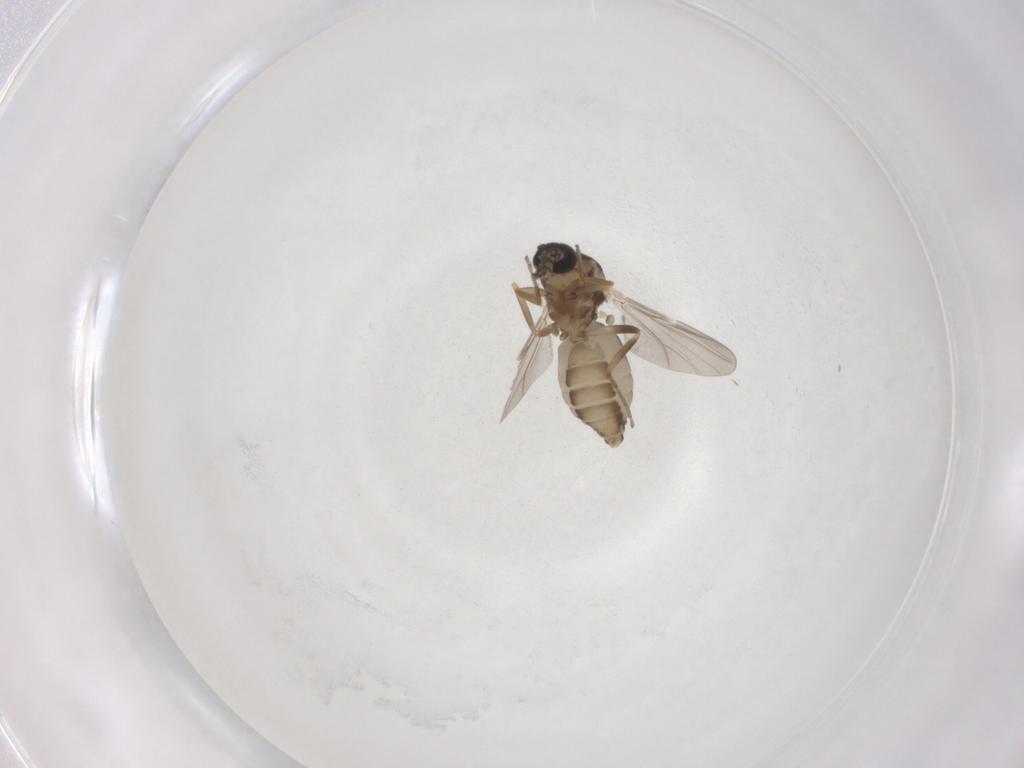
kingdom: Animalia
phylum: Arthropoda
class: Insecta
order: Diptera
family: Ceratopogonidae
